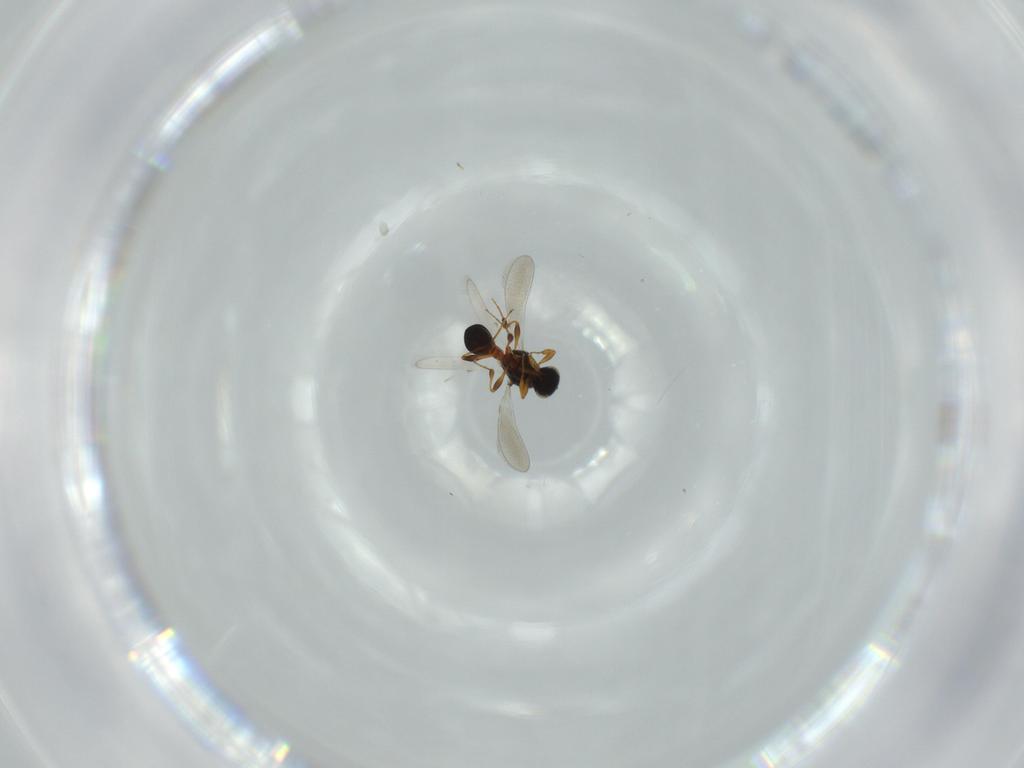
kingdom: Animalia
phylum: Arthropoda
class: Insecta
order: Hymenoptera
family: Platygastridae
